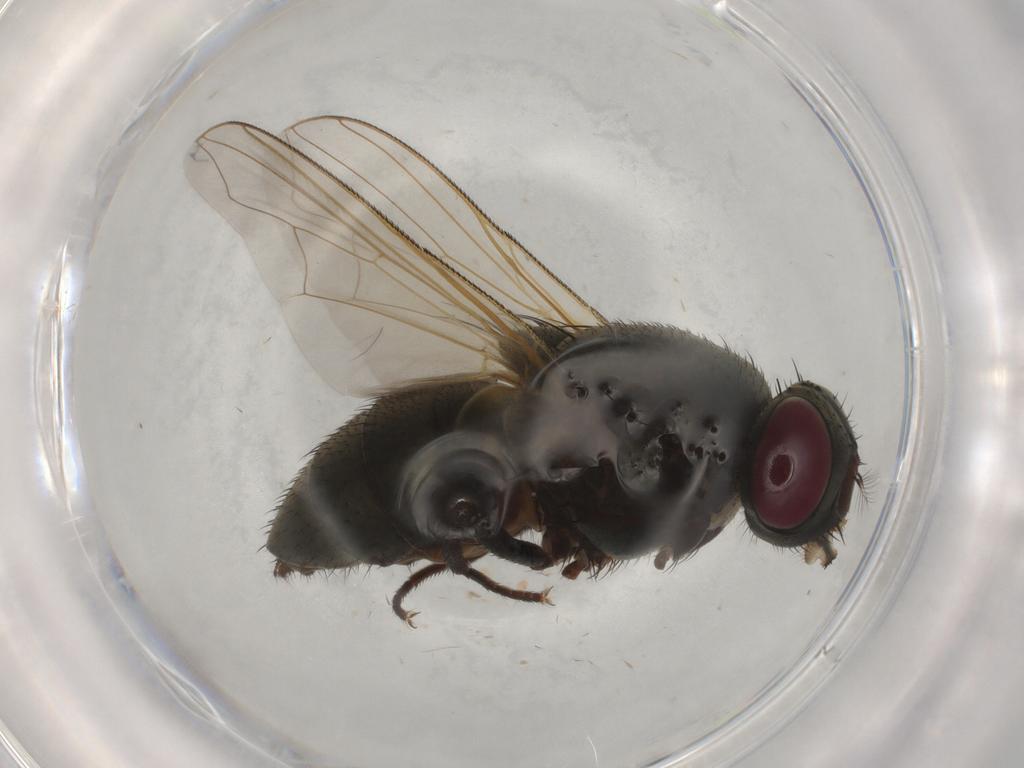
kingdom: Animalia
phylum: Arthropoda
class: Insecta
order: Diptera
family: Muscidae
